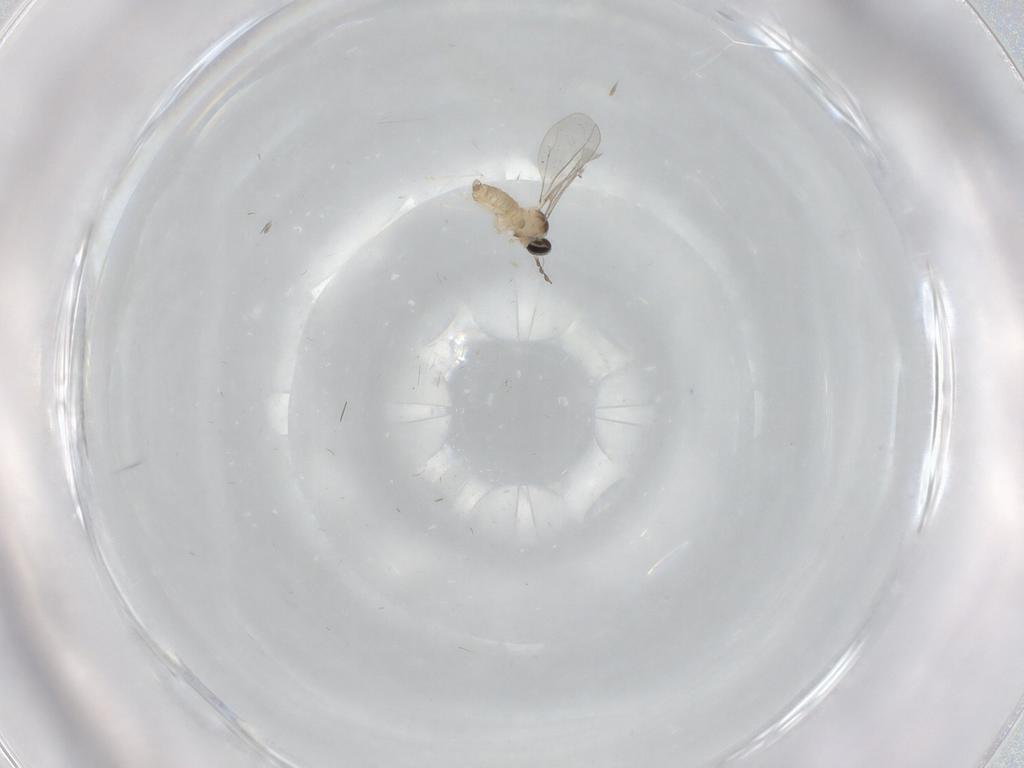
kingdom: Animalia
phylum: Arthropoda
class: Insecta
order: Diptera
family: Cecidomyiidae
